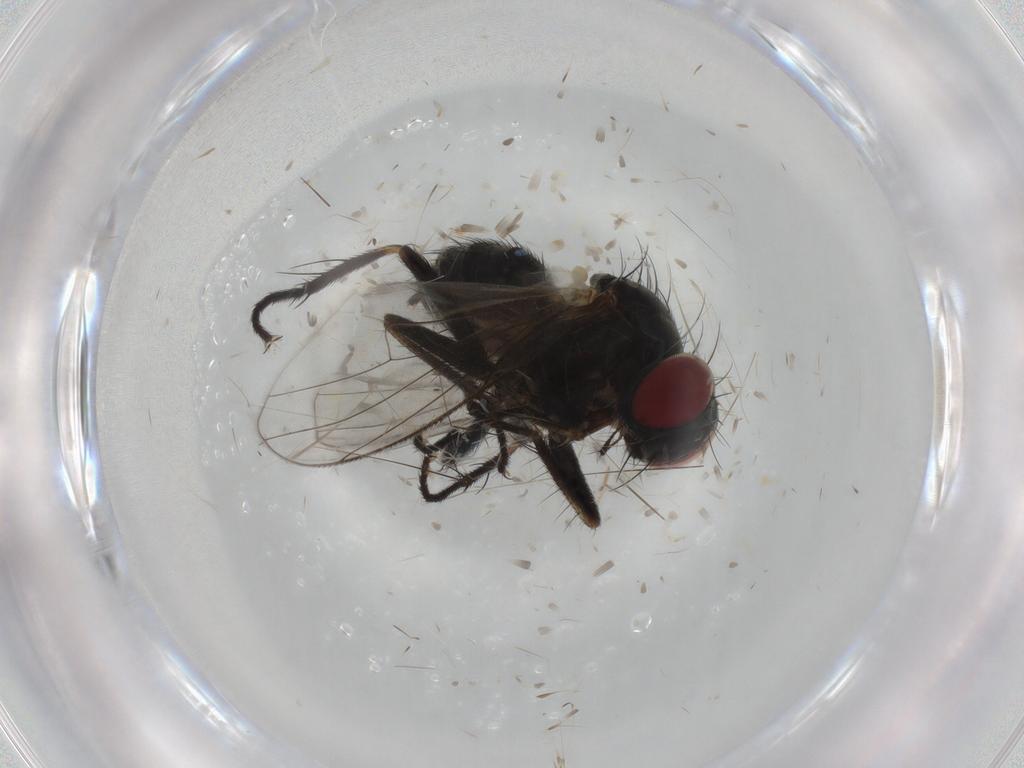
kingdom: Animalia
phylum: Arthropoda
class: Insecta
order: Diptera
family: Muscidae
